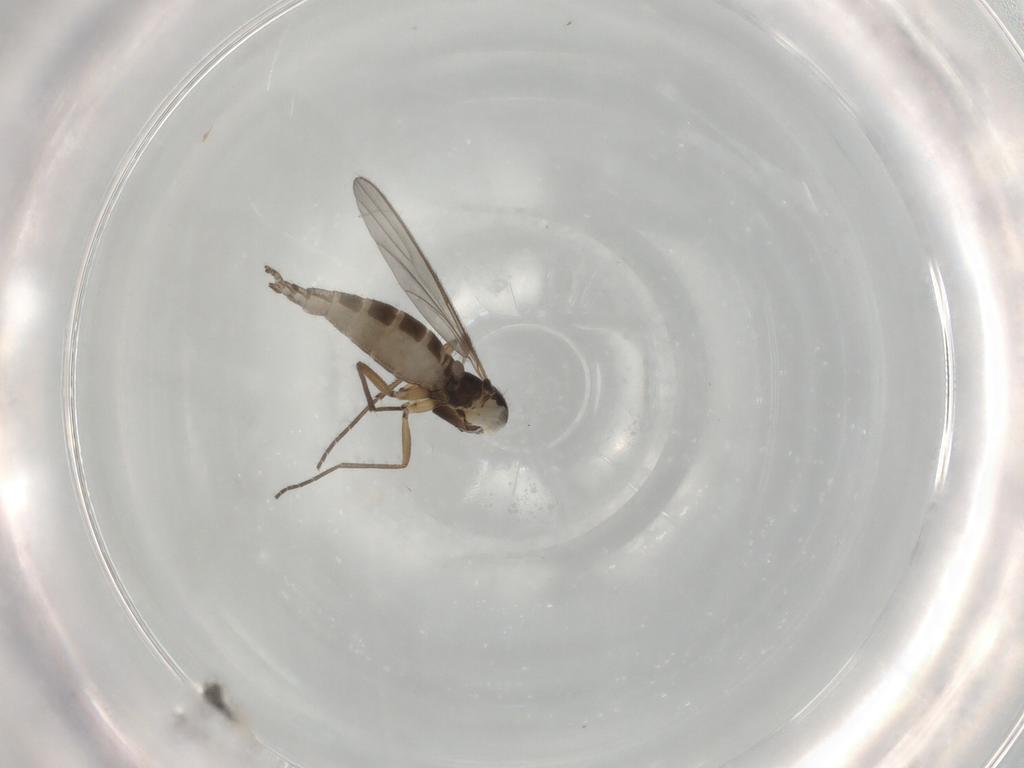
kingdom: Animalia
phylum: Arthropoda
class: Insecta
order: Diptera
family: Sciaridae
